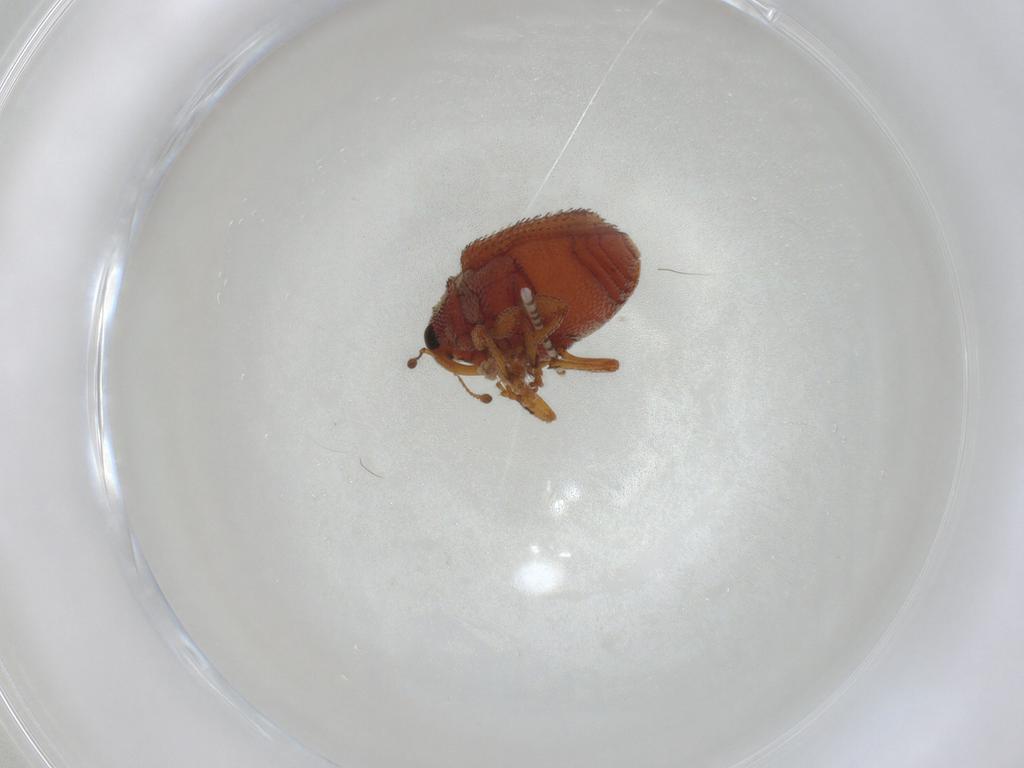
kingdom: Animalia
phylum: Arthropoda
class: Insecta
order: Coleoptera
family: Curculionidae
